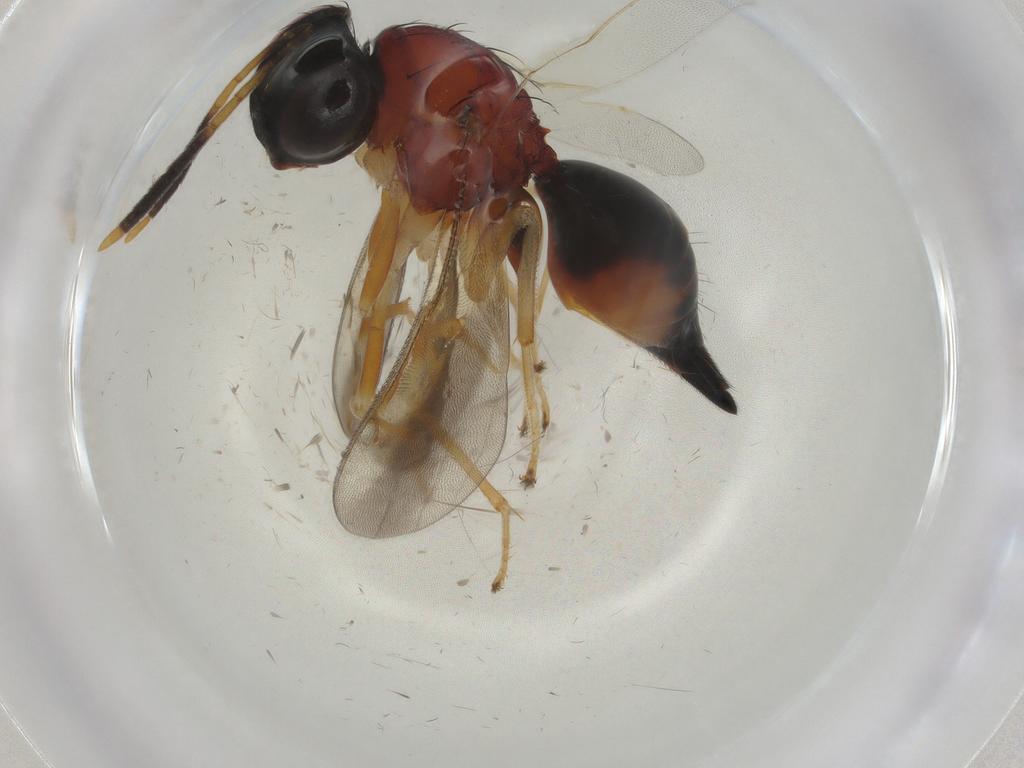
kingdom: Animalia
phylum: Arthropoda
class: Insecta
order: Hymenoptera
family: Diparidae
